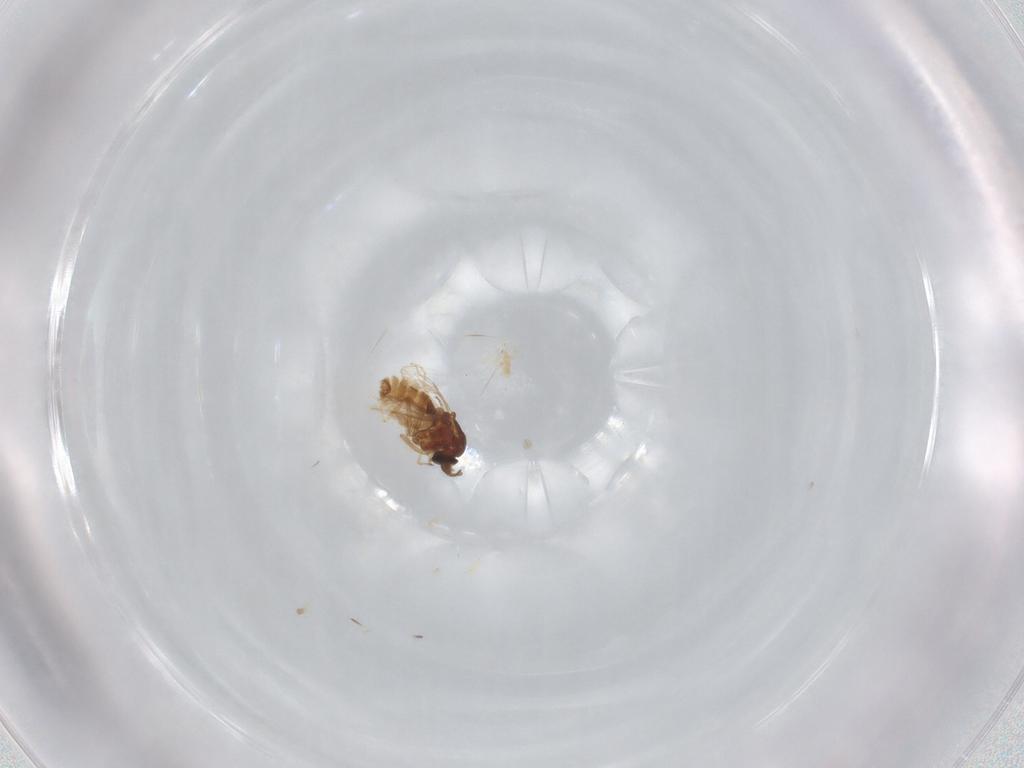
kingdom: Animalia
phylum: Arthropoda
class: Insecta
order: Diptera
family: Ceratopogonidae
